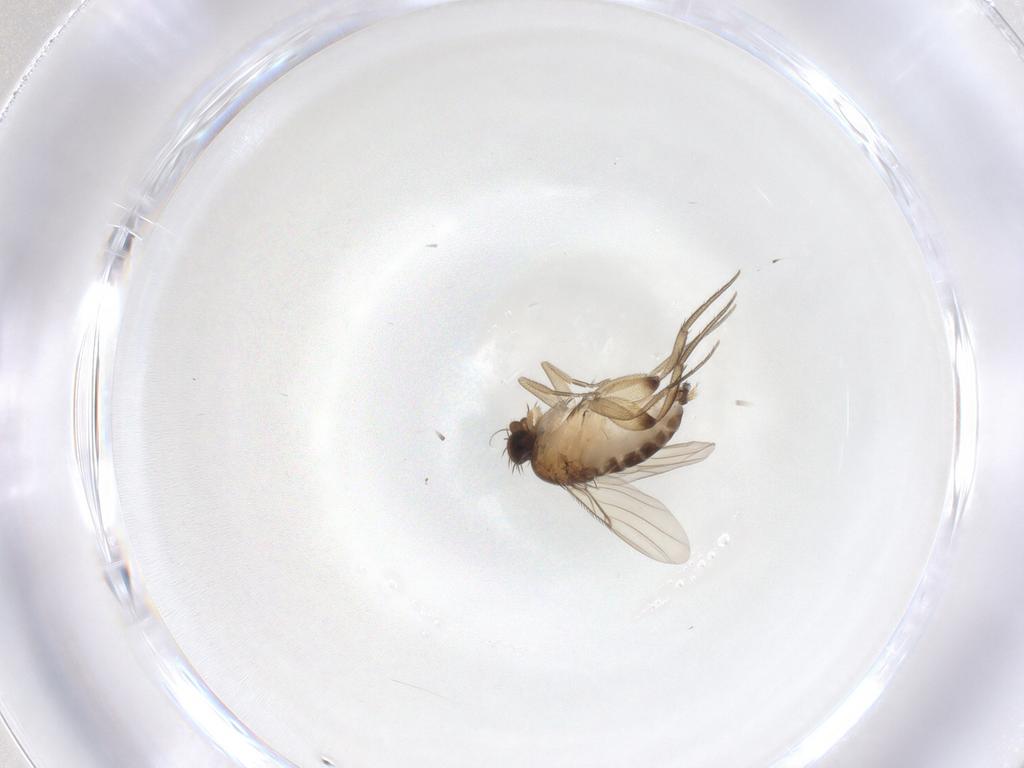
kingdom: Animalia
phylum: Arthropoda
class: Insecta
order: Diptera
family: Phoridae
